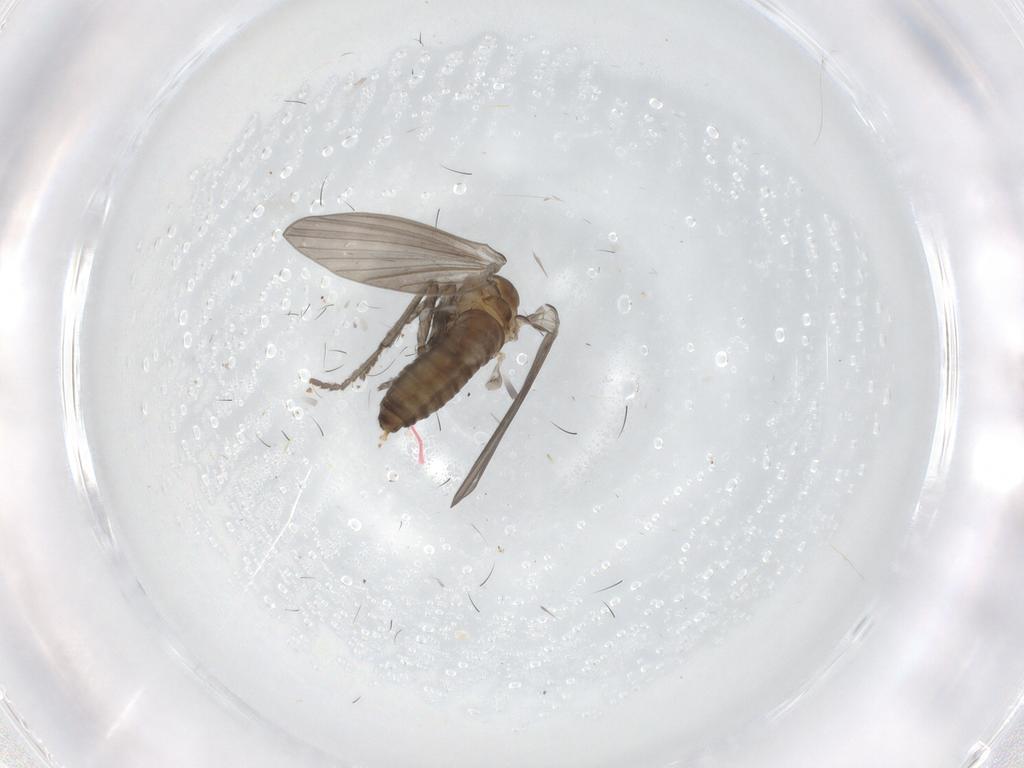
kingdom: Animalia
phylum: Arthropoda
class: Insecta
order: Diptera
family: Psychodidae
